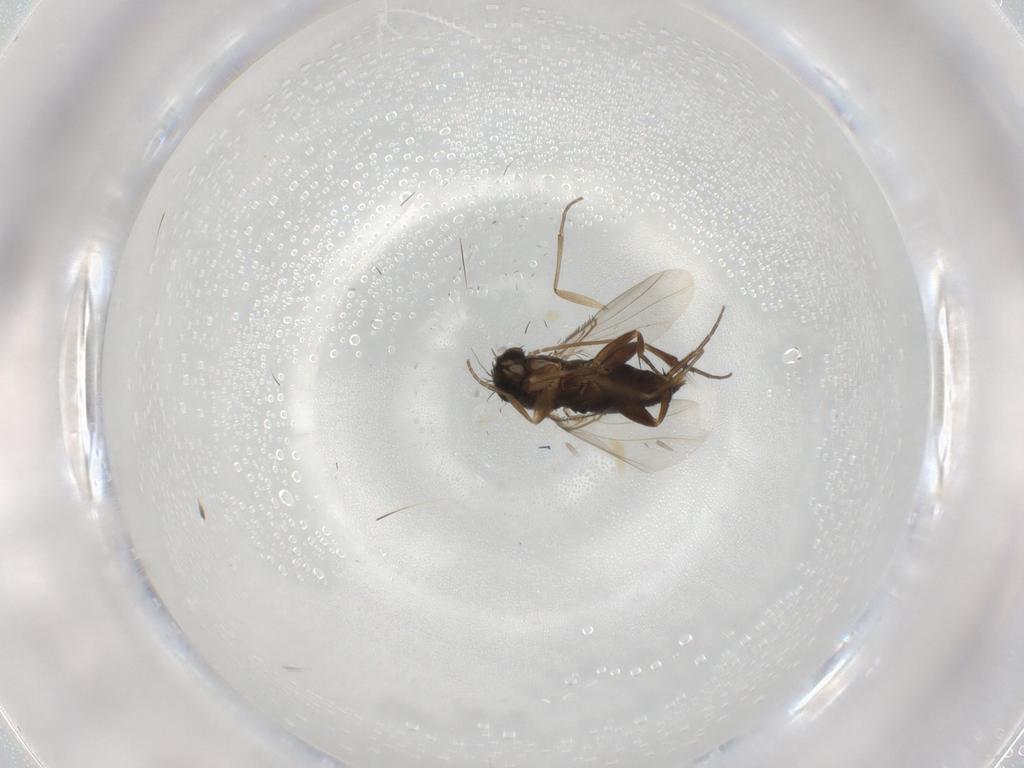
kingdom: Animalia
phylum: Arthropoda
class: Insecta
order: Diptera
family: Phoridae
